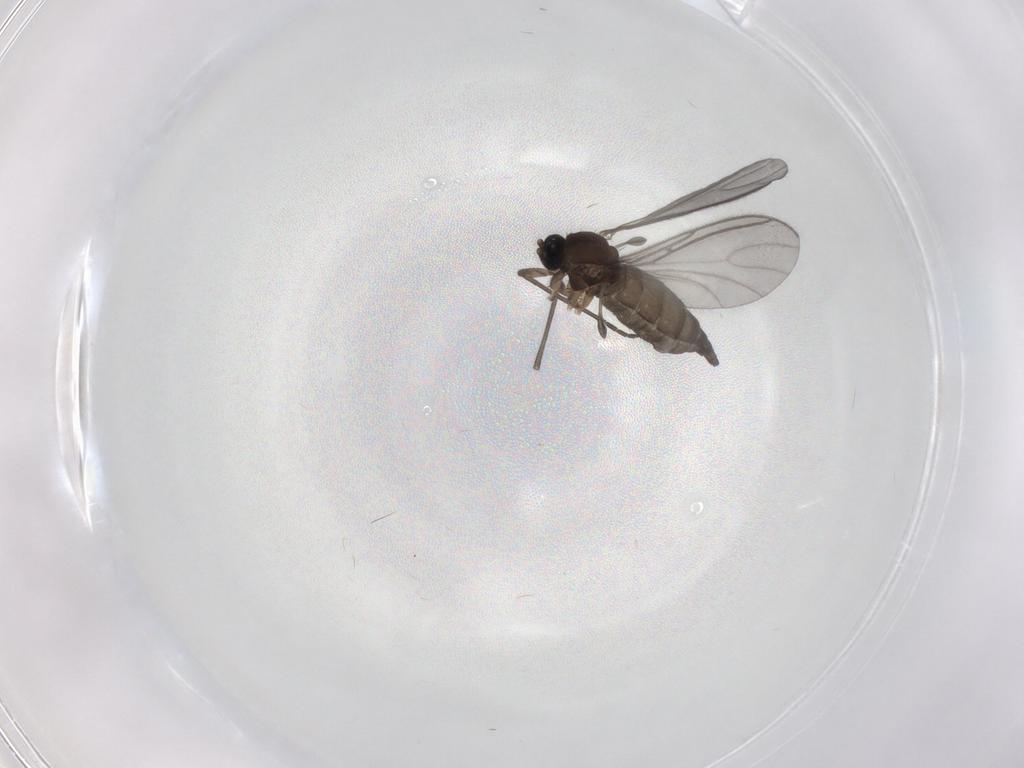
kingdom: Animalia
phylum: Arthropoda
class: Insecta
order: Diptera
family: Sciaridae
